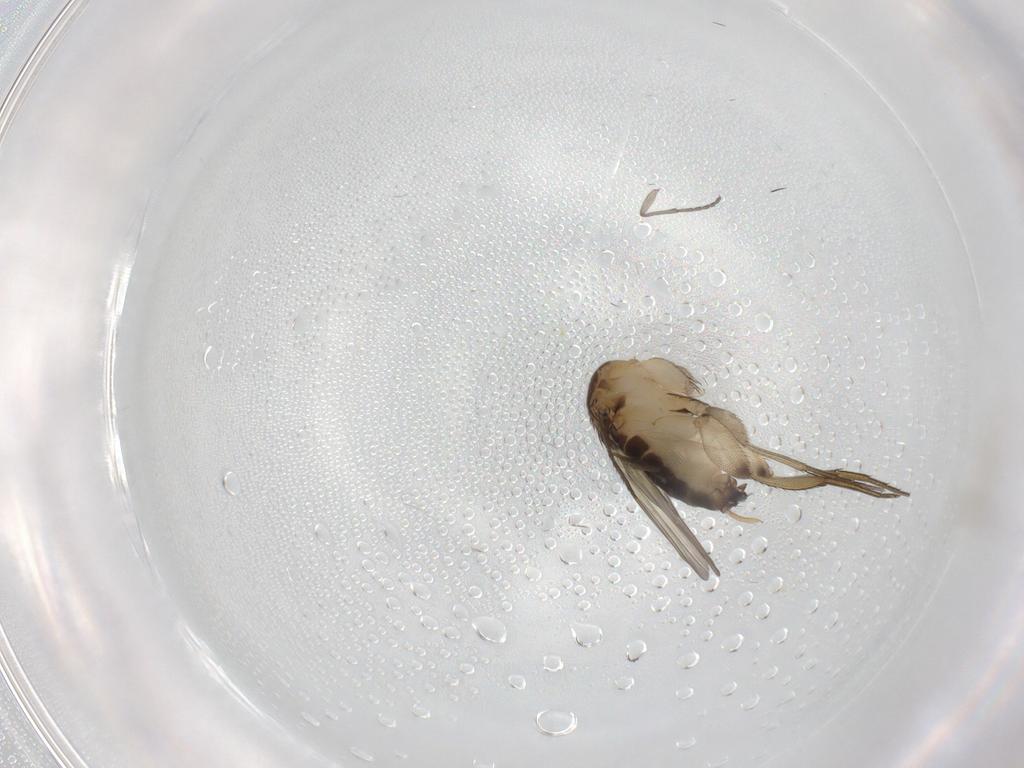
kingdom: Animalia
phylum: Arthropoda
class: Insecta
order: Diptera
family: Phoridae
